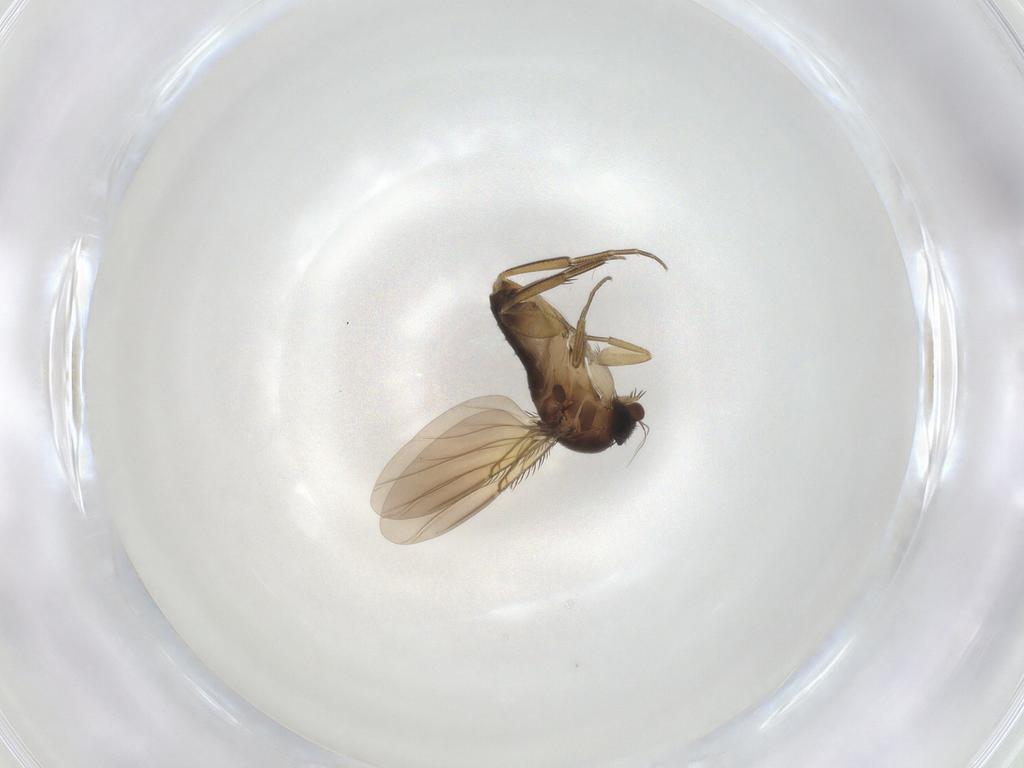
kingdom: Animalia
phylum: Arthropoda
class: Insecta
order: Diptera
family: Phoridae
